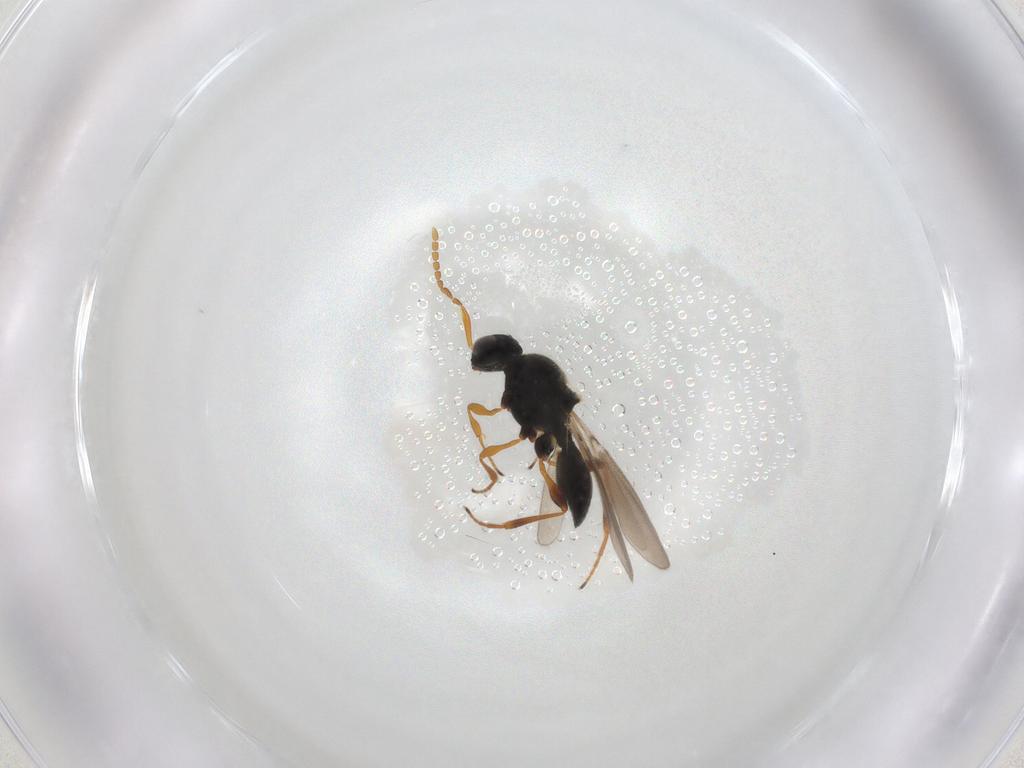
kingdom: Animalia
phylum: Arthropoda
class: Insecta
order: Hymenoptera
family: Platygastridae
